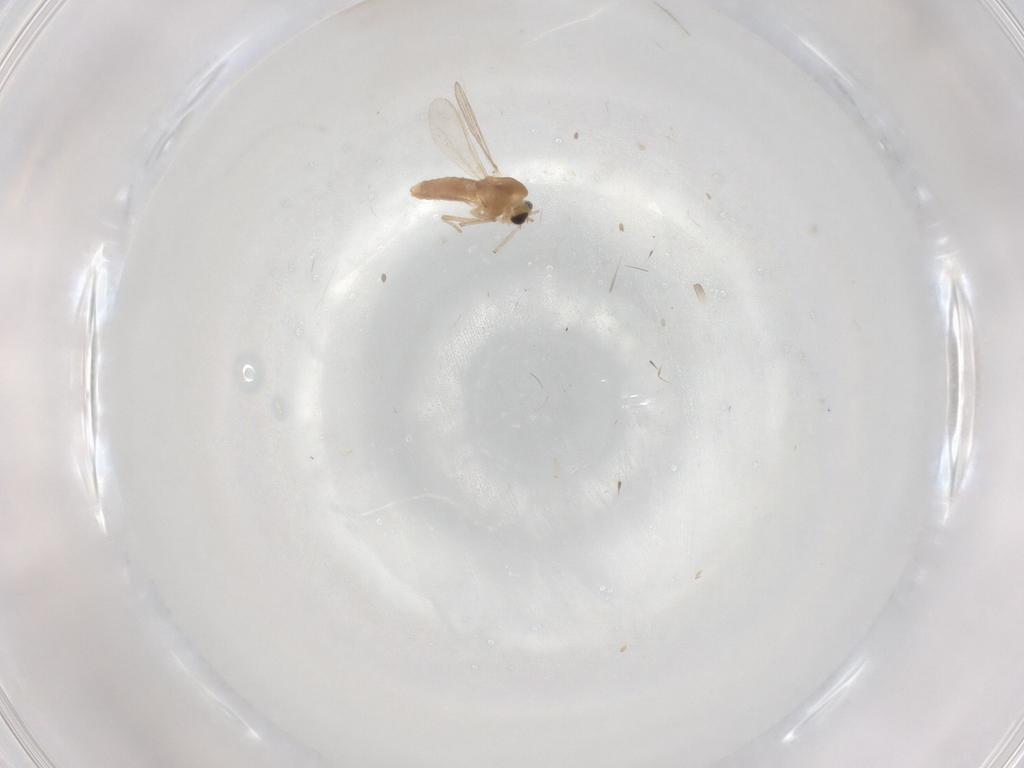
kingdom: Animalia
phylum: Arthropoda
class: Insecta
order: Diptera
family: Chironomidae
